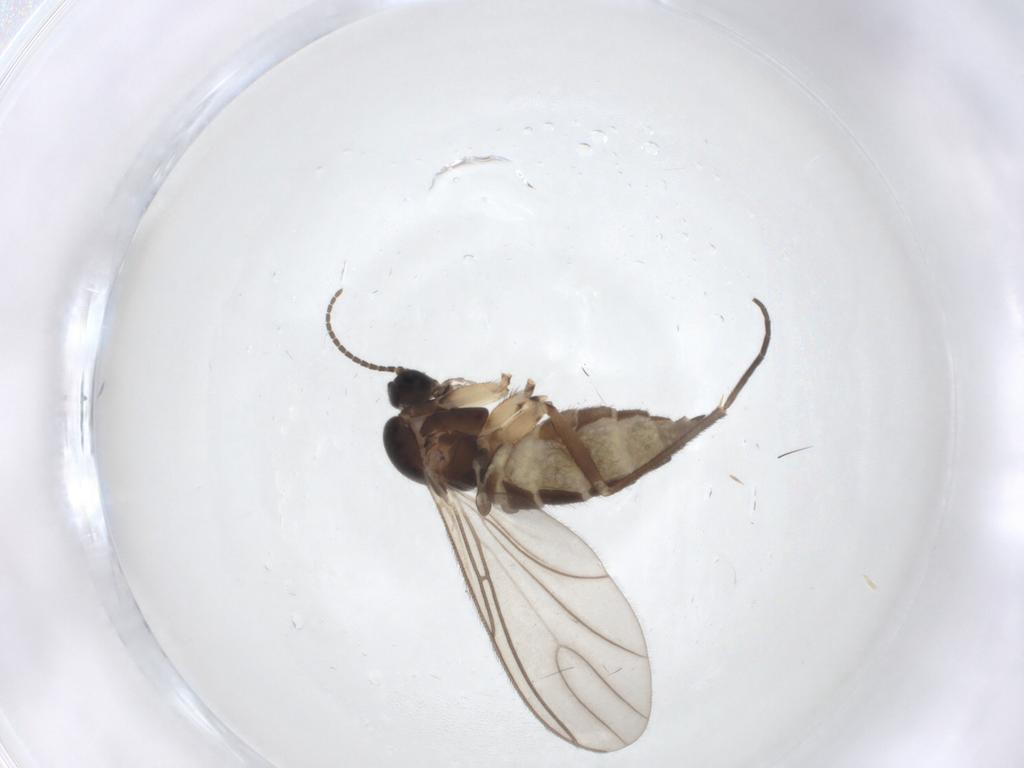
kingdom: Animalia
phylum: Arthropoda
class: Insecta
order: Diptera
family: Sciaridae
